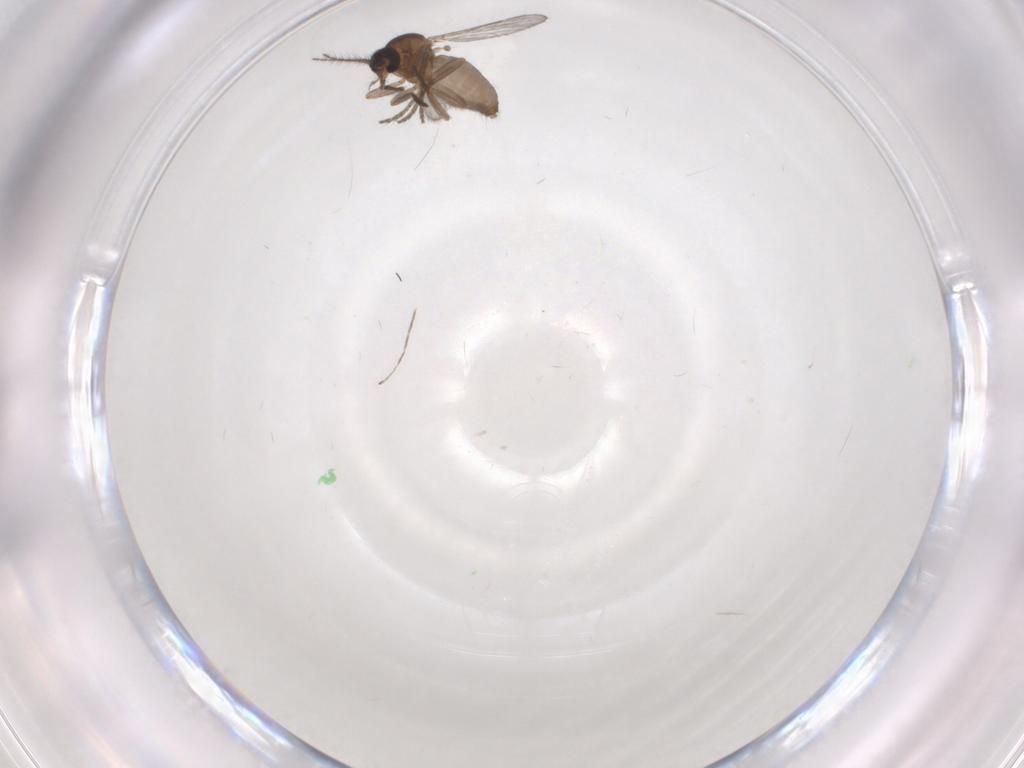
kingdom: Animalia
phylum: Arthropoda
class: Insecta
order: Diptera
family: Ceratopogonidae
